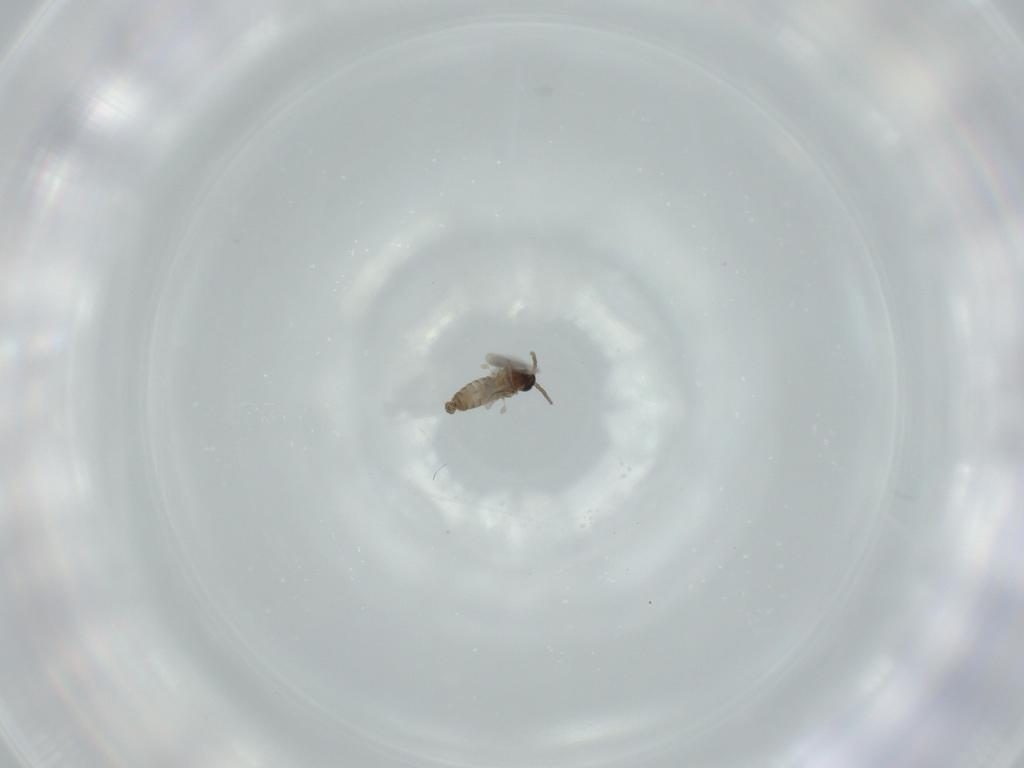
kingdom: Animalia
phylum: Arthropoda
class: Insecta
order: Diptera
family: Cecidomyiidae
